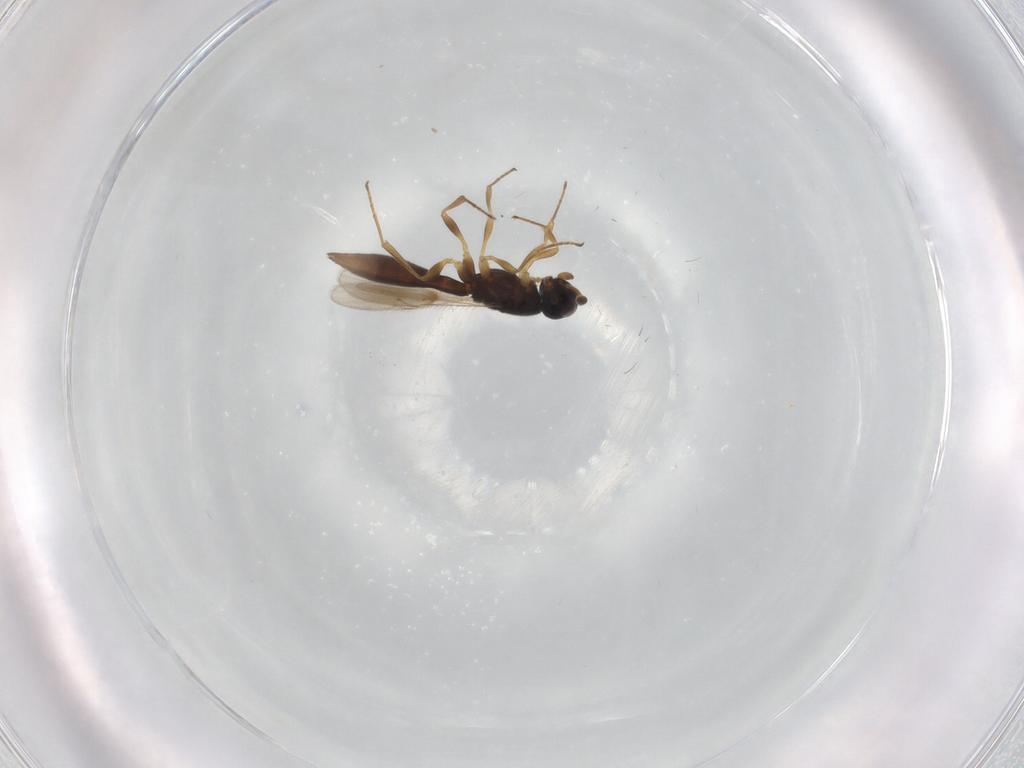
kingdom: Animalia
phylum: Arthropoda
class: Insecta
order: Hymenoptera
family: Scelionidae
